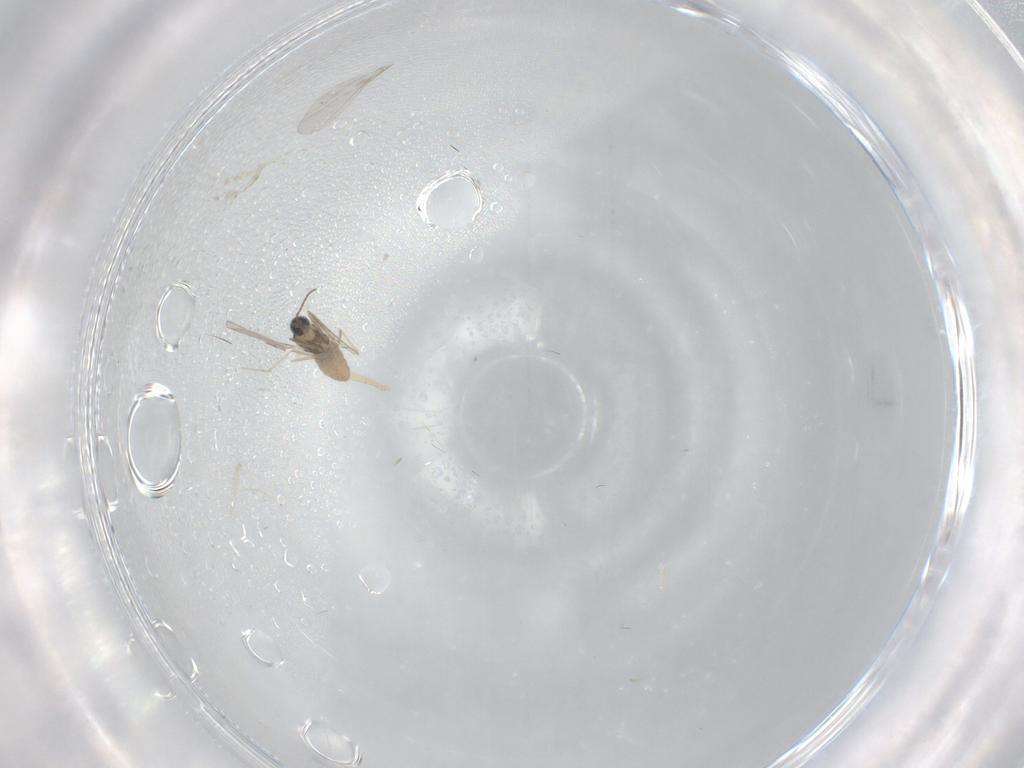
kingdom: Animalia
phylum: Arthropoda
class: Insecta
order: Diptera
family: Cecidomyiidae
